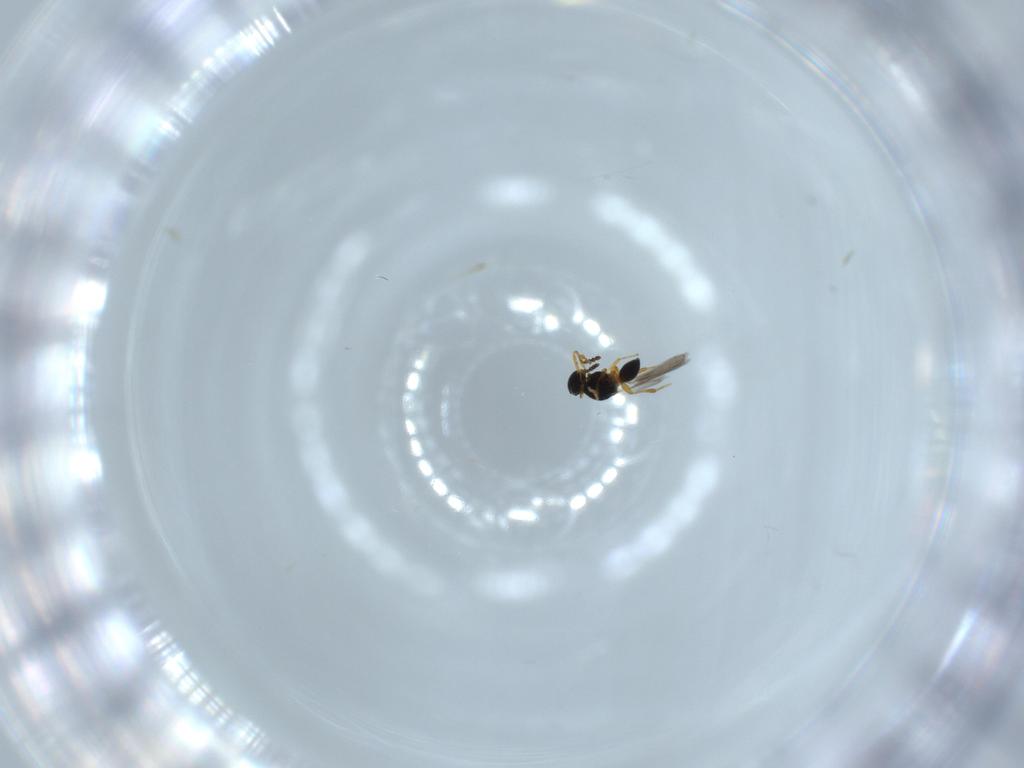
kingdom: Animalia
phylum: Arthropoda
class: Insecta
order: Hymenoptera
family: Platygastridae
